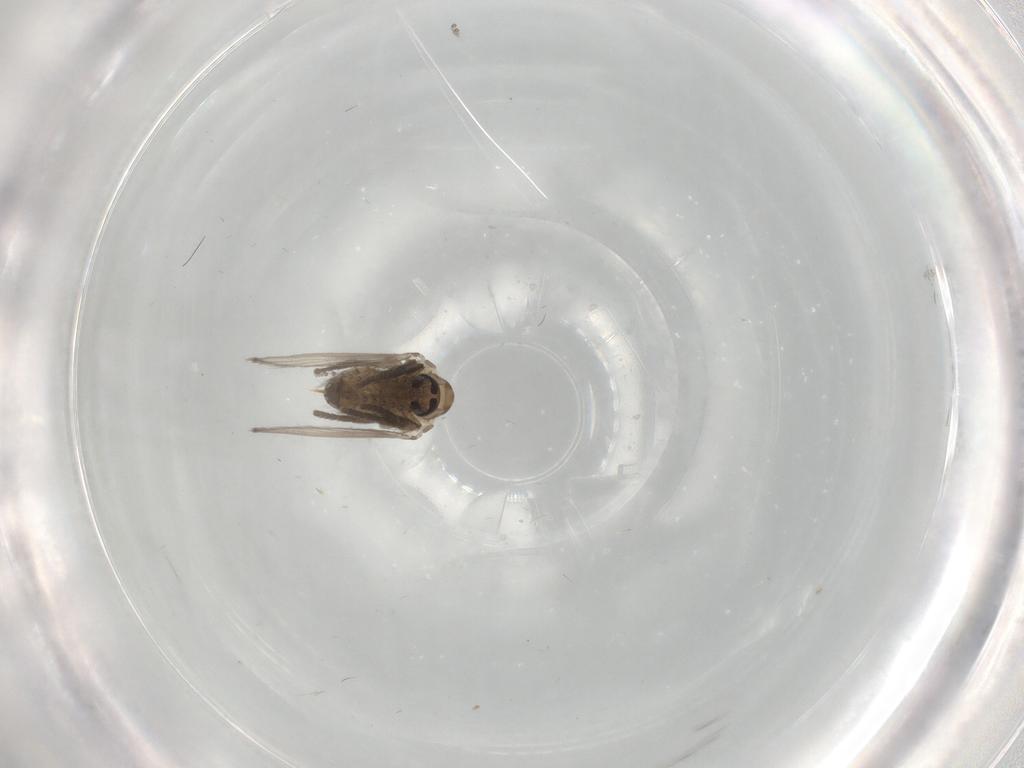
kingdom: Animalia
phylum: Arthropoda
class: Insecta
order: Diptera
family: Psychodidae
